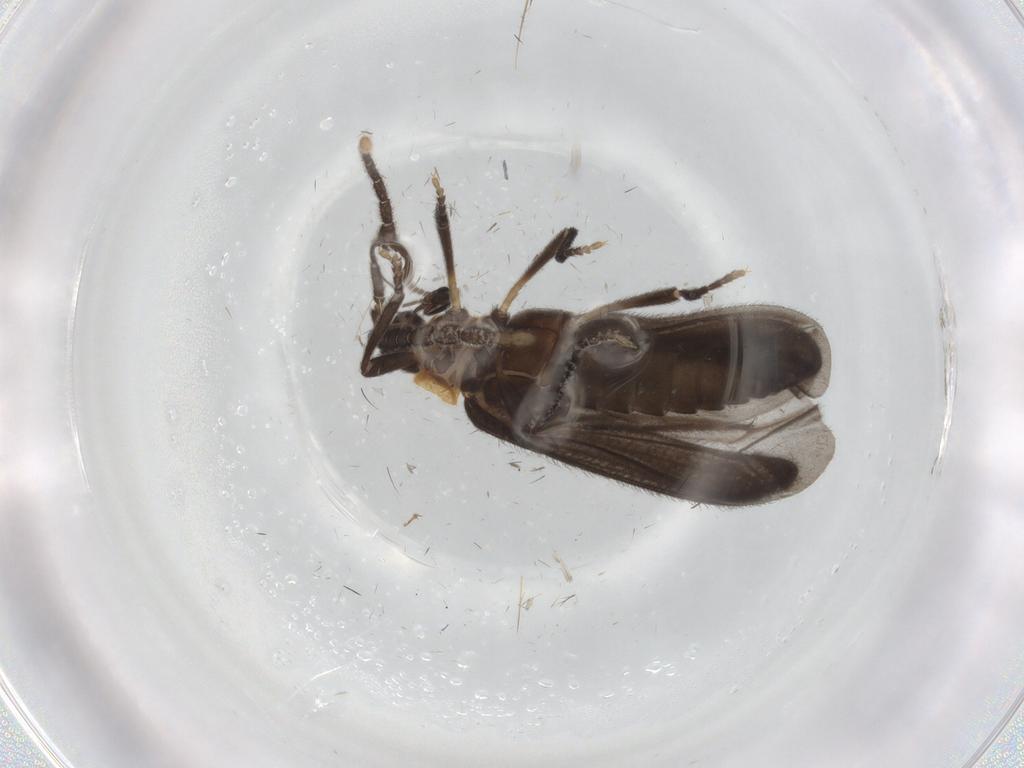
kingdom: Animalia
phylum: Arthropoda
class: Insecta
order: Coleoptera
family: Lycidae
